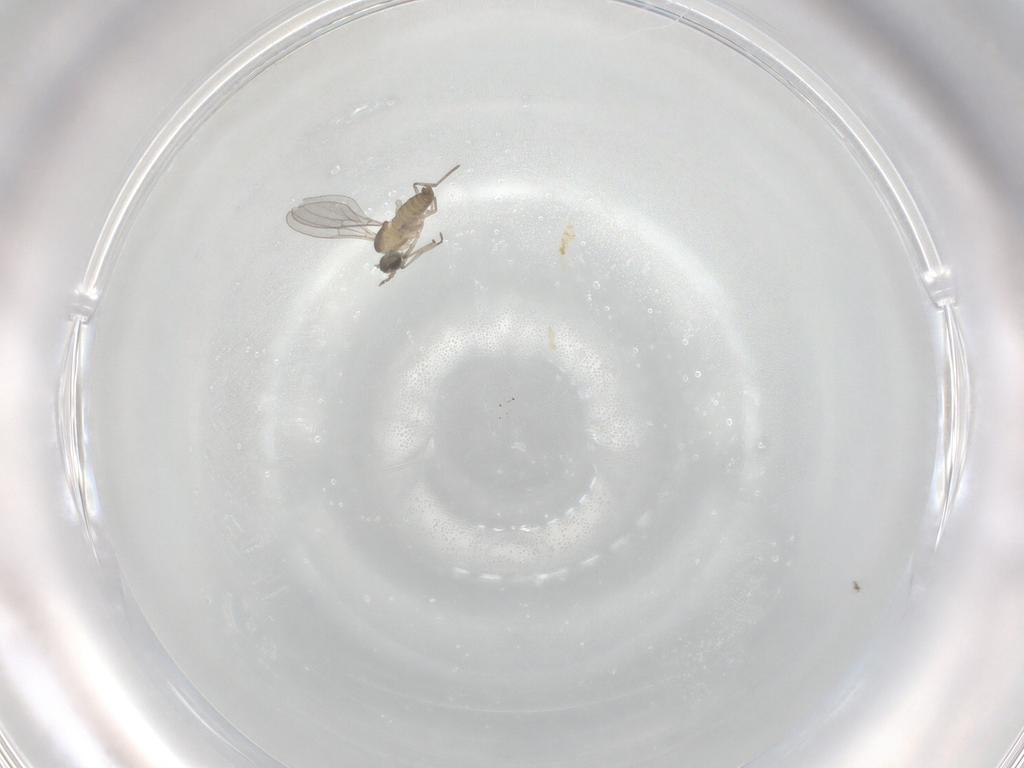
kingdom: Animalia
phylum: Arthropoda
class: Insecta
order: Diptera
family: Cecidomyiidae
